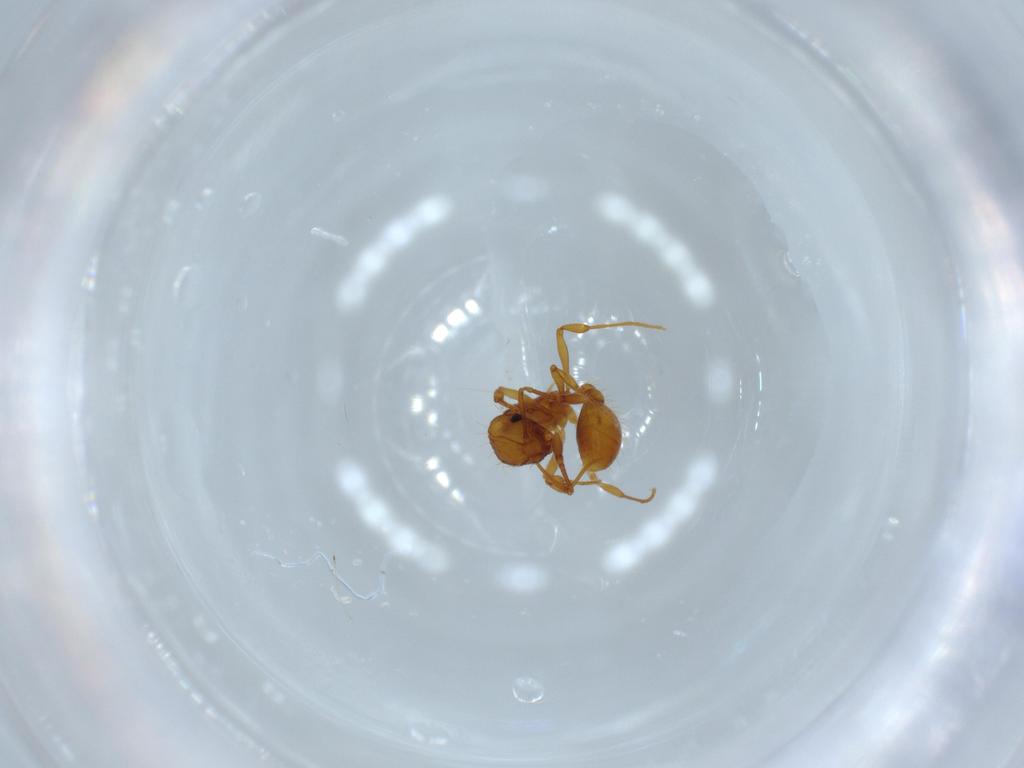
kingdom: Animalia
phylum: Arthropoda
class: Insecta
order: Hymenoptera
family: Formicidae
